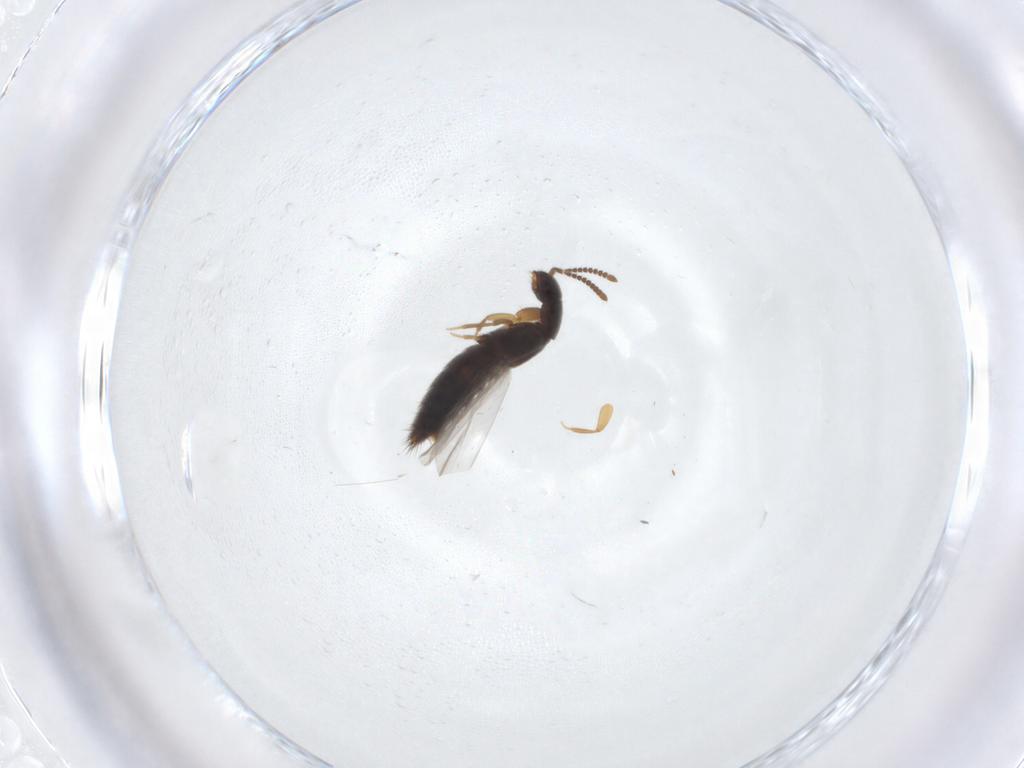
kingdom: Animalia
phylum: Arthropoda
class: Insecta
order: Coleoptera
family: Staphylinidae
